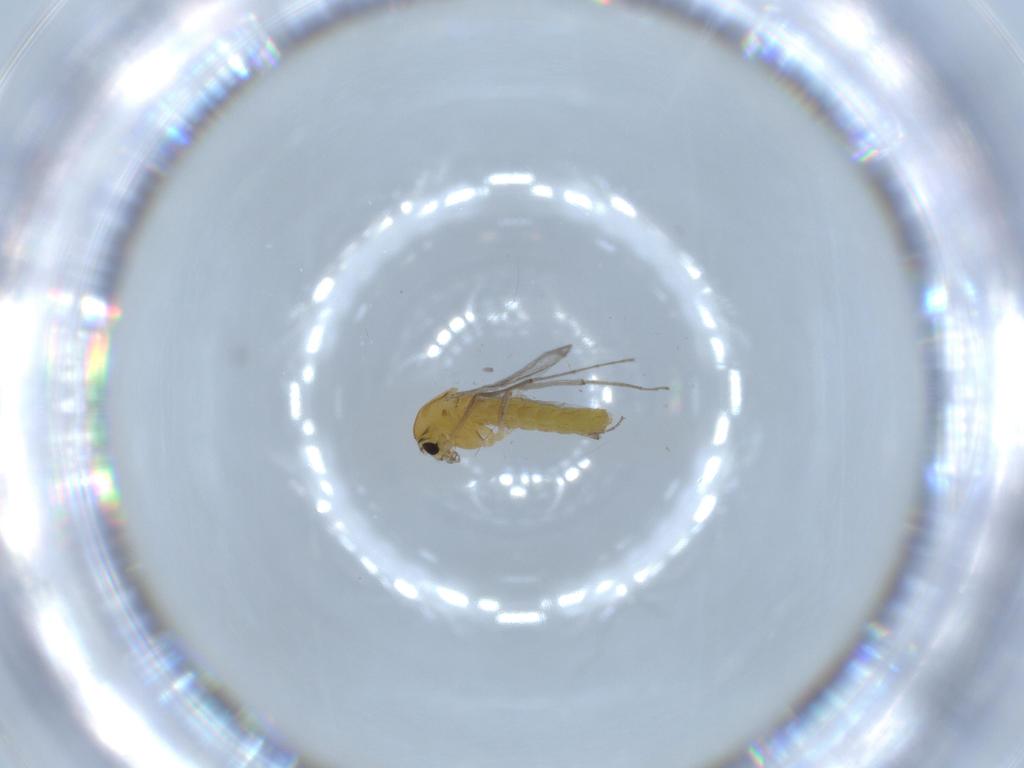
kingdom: Animalia
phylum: Arthropoda
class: Insecta
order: Diptera
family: Chironomidae
